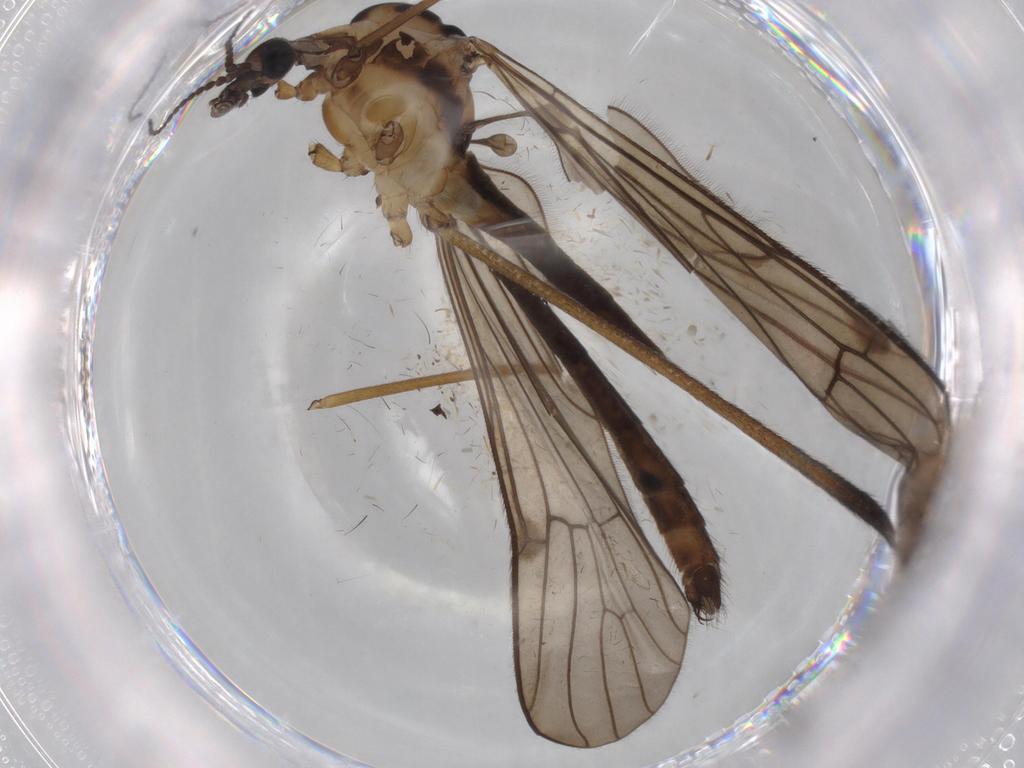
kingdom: Animalia
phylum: Arthropoda
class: Insecta
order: Diptera
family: Limoniidae
